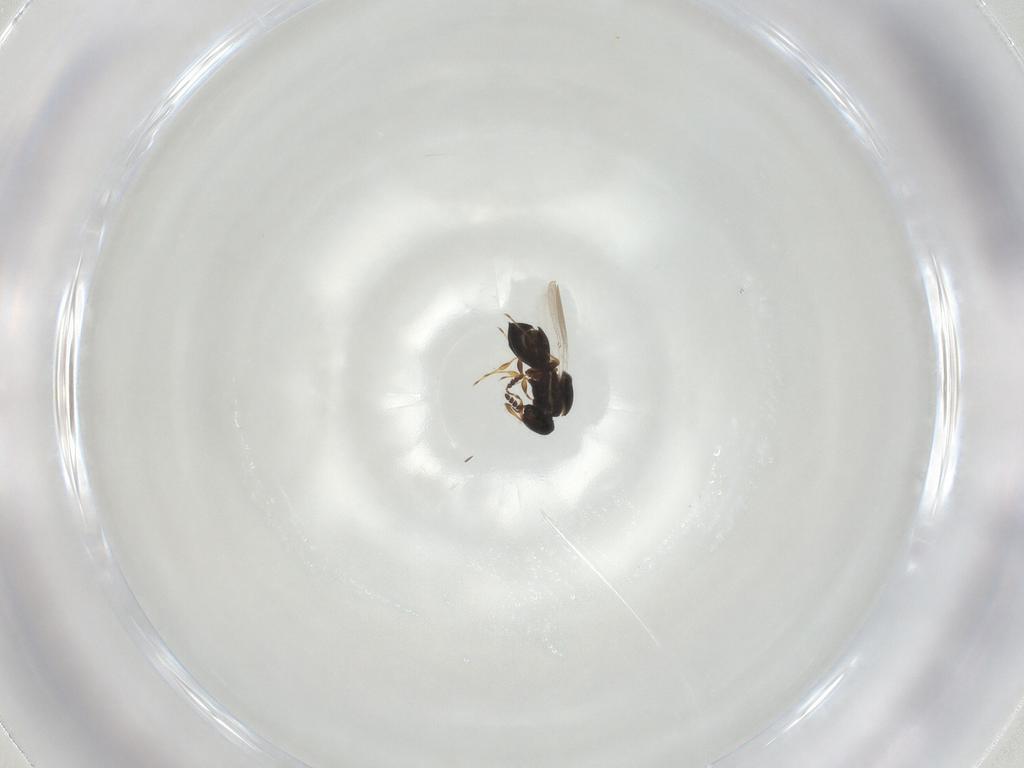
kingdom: Animalia
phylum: Arthropoda
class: Insecta
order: Hymenoptera
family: Platygastridae
